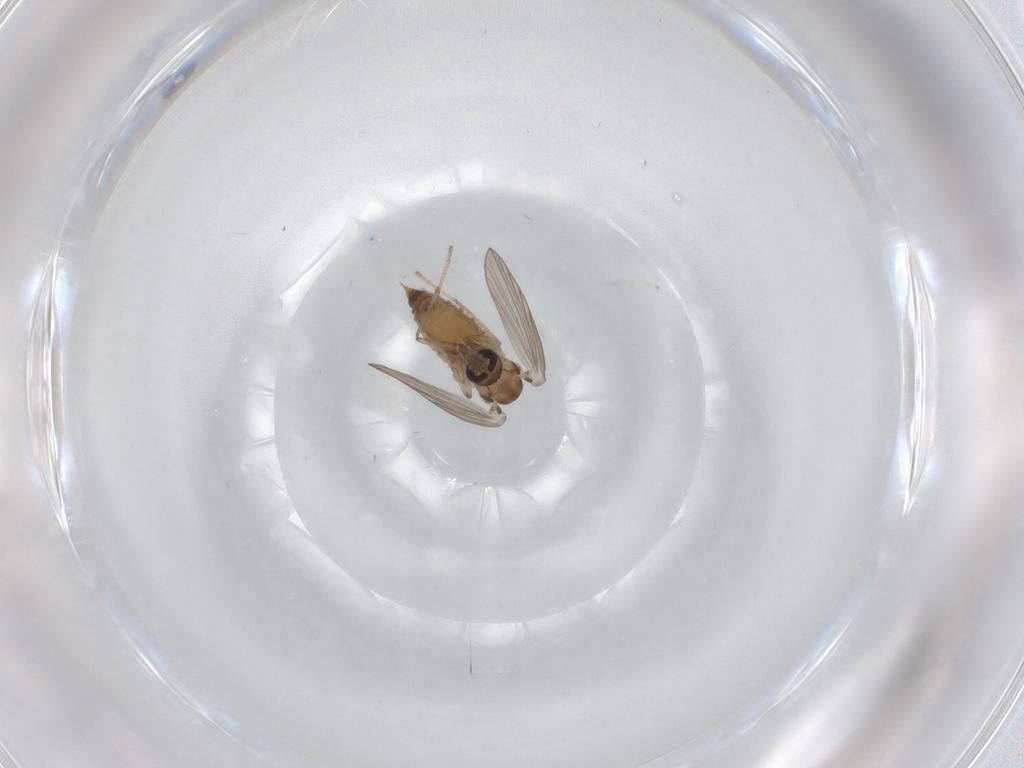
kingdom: Animalia
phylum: Arthropoda
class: Insecta
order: Diptera
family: Psychodidae
